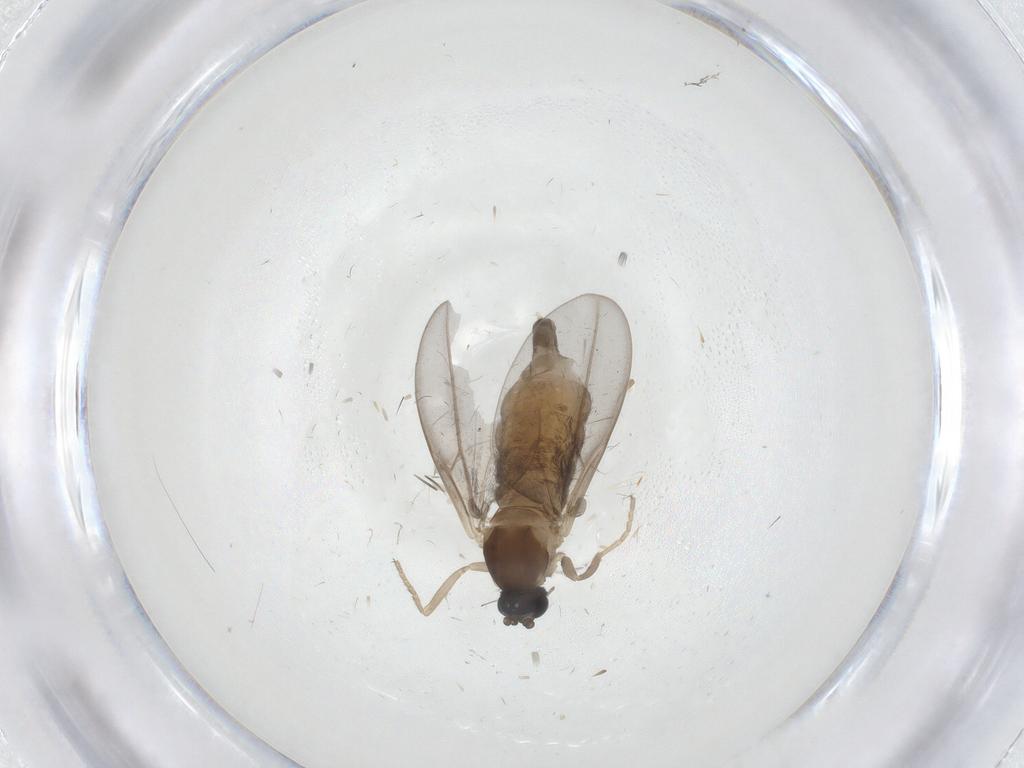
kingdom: Animalia
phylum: Arthropoda
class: Insecta
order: Diptera
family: Cecidomyiidae
